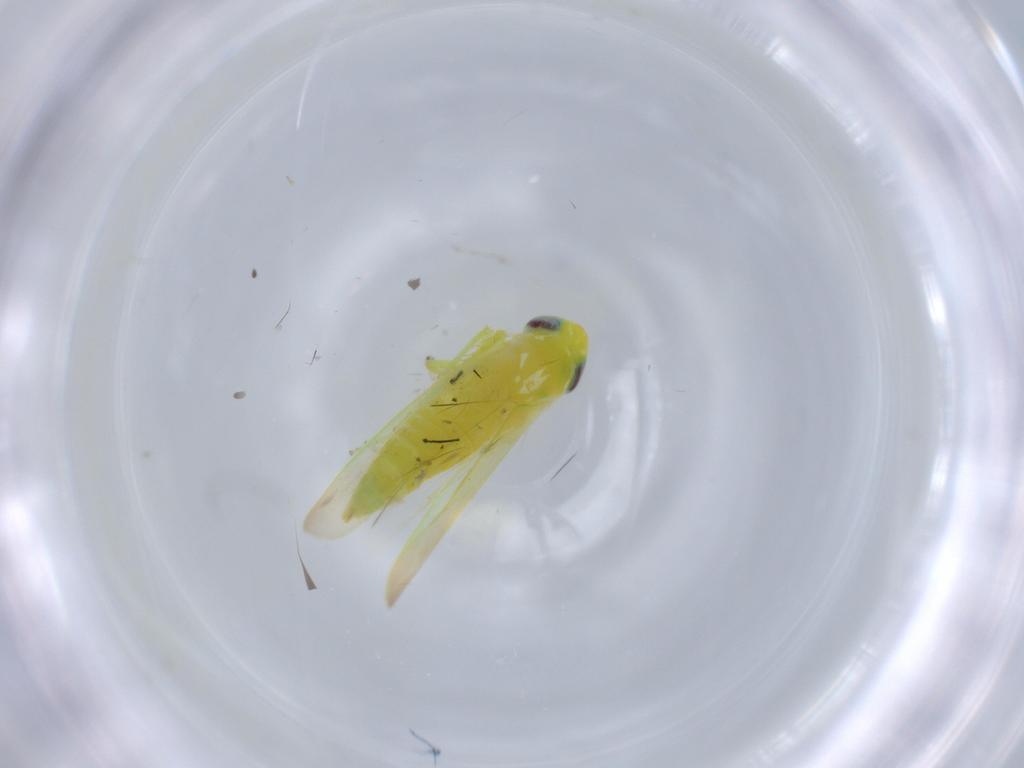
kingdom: Animalia
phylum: Arthropoda
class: Insecta
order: Hemiptera
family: Cicadellidae
